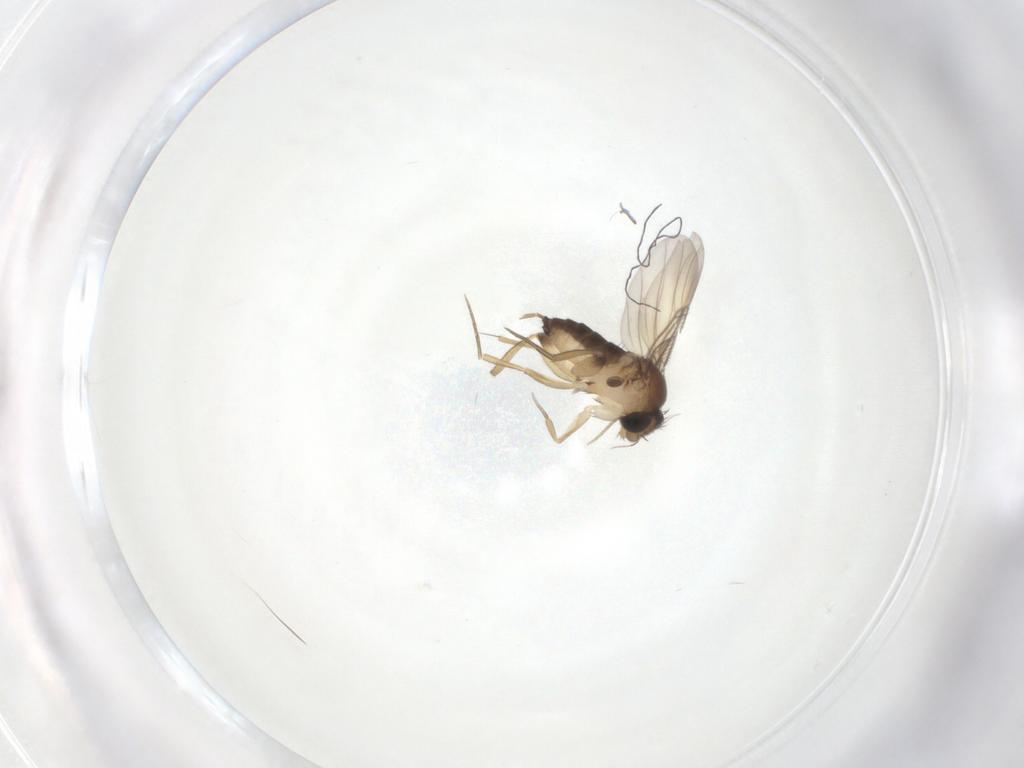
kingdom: Animalia
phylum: Arthropoda
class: Insecta
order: Diptera
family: Phoridae
